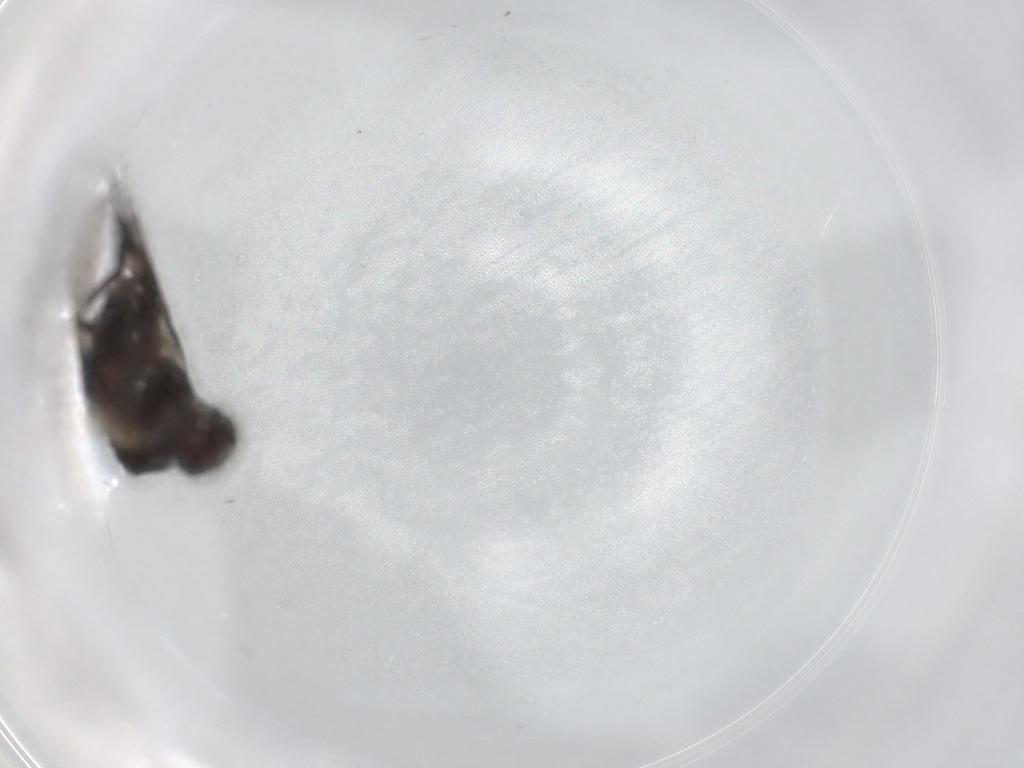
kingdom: Animalia
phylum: Arthropoda
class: Insecta
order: Diptera
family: Agromyzidae
